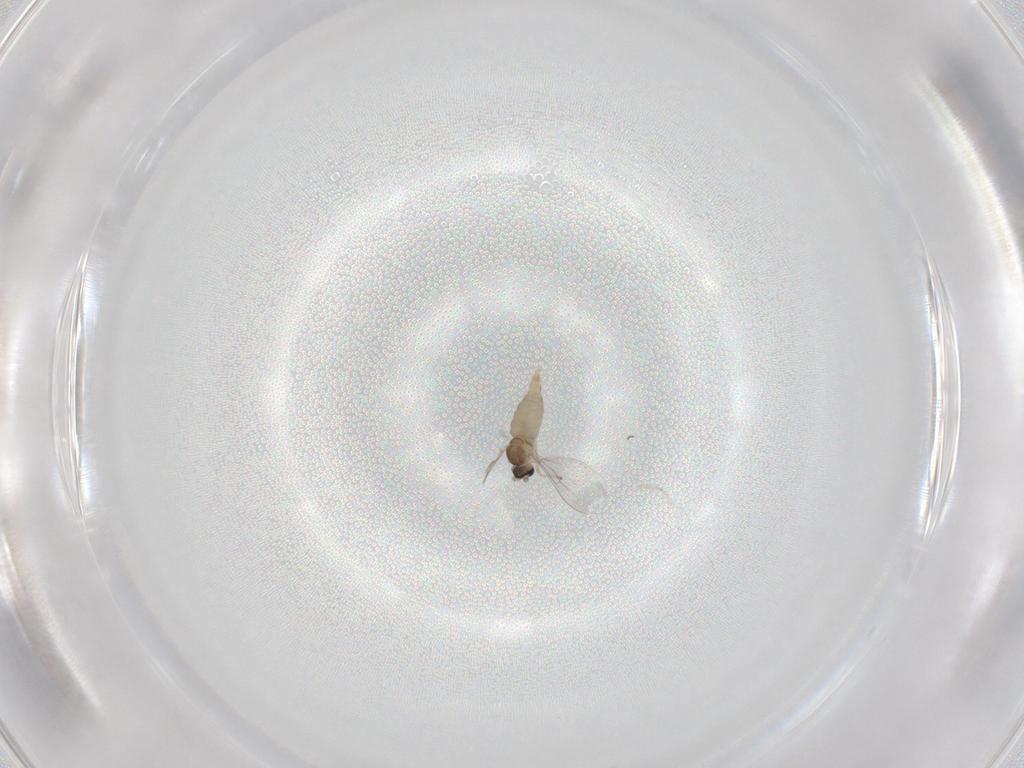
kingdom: Animalia
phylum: Arthropoda
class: Insecta
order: Diptera
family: Cecidomyiidae
